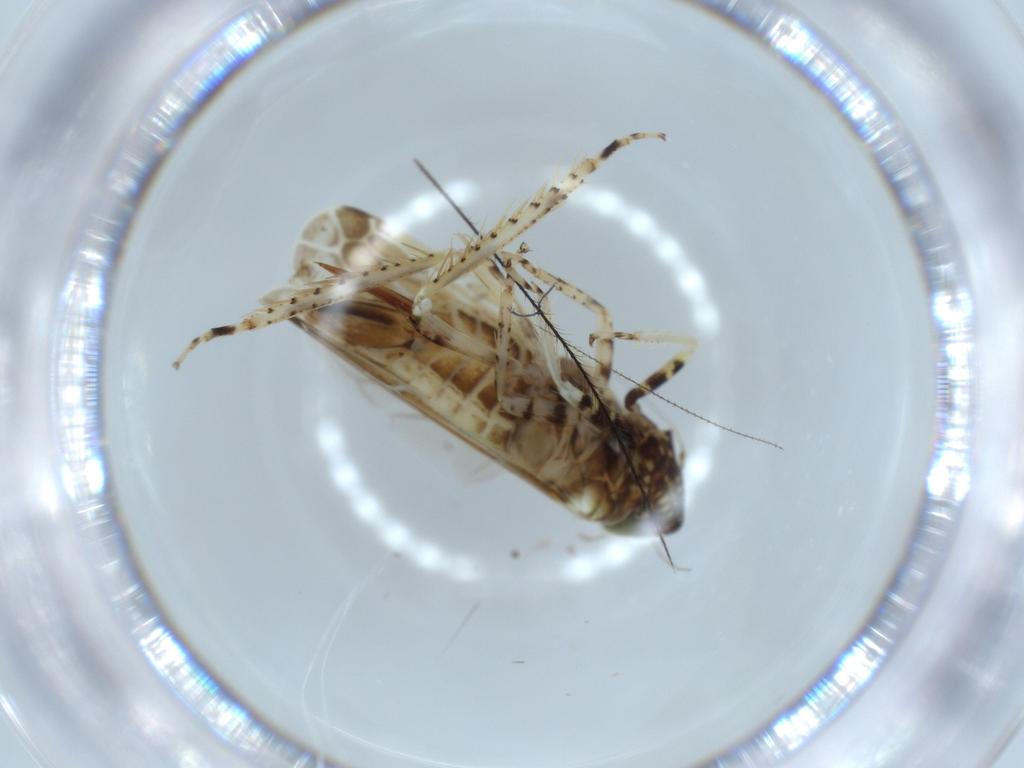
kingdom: Animalia
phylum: Arthropoda
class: Insecta
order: Hemiptera
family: Cicadellidae
